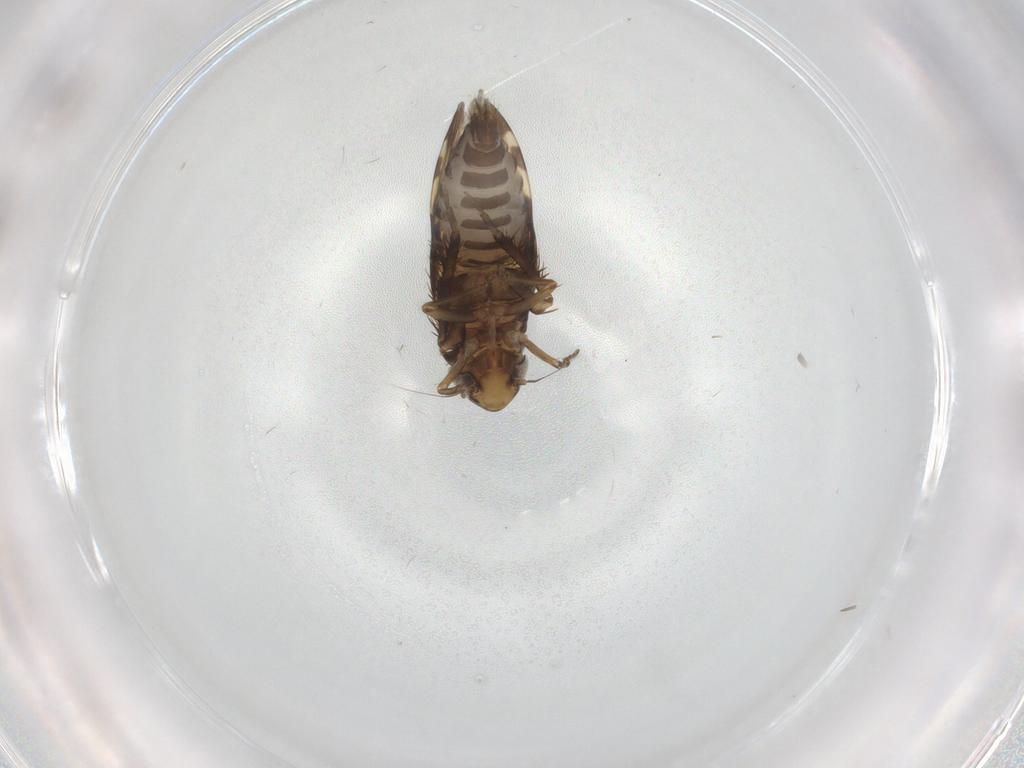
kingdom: Animalia
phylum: Arthropoda
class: Insecta
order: Hemiptera
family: Cicadellidae
